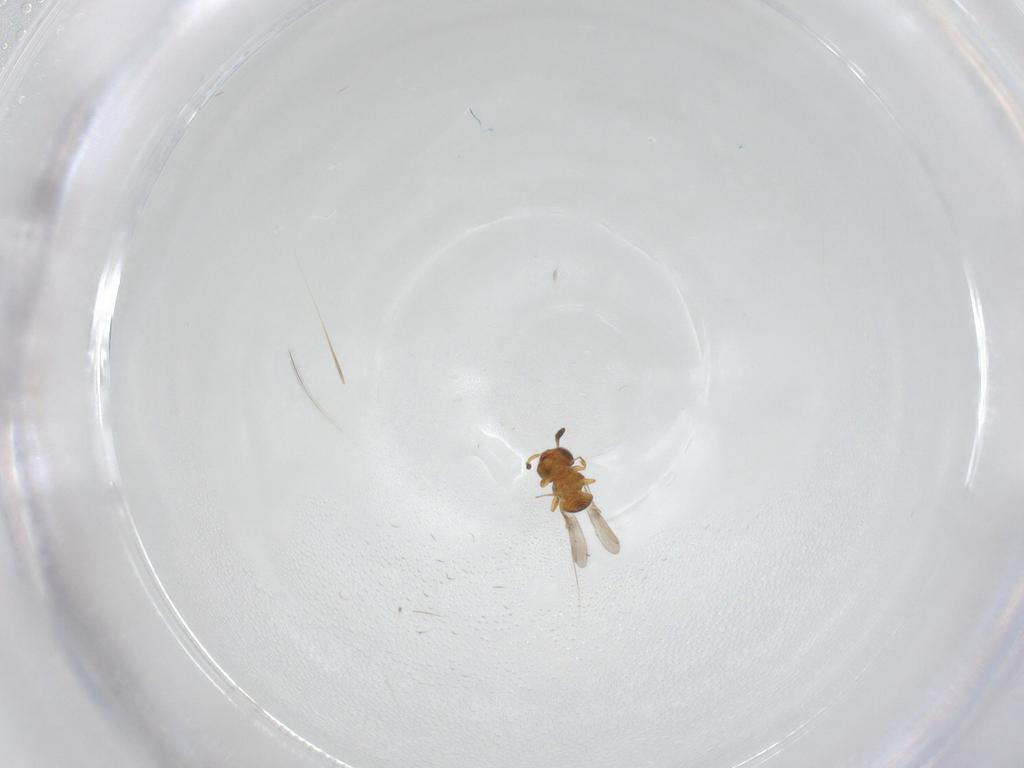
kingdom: Animalia
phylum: Arthropoda
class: Insecta
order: Hymenoptera
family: Scelionidae
